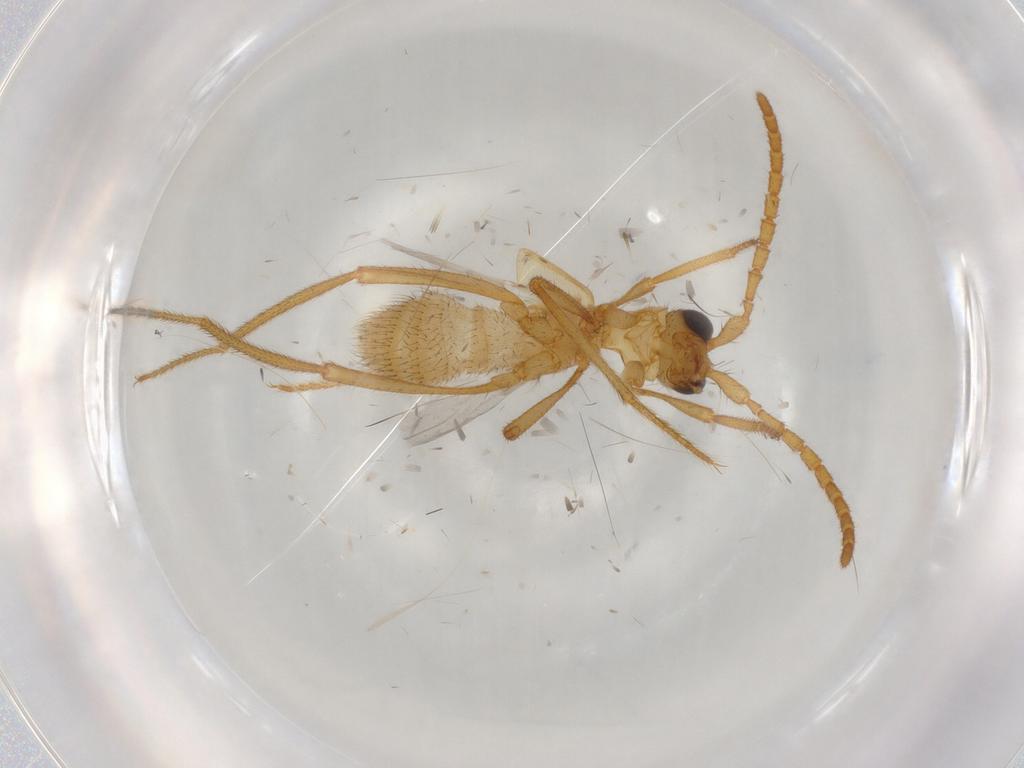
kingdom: Animalia
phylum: Arthropoda
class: Insecta
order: Coleoptera
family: Staphylinidae
